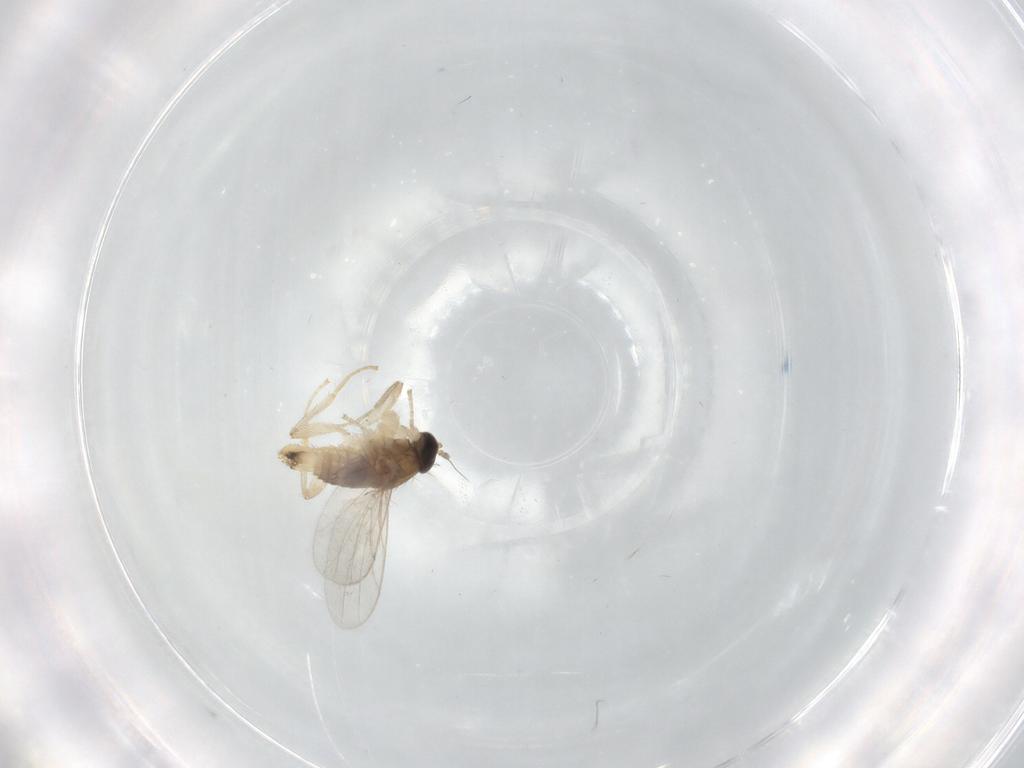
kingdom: Animalia
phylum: Arthropoda
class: Insecta
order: Diptera
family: Hybotidae
